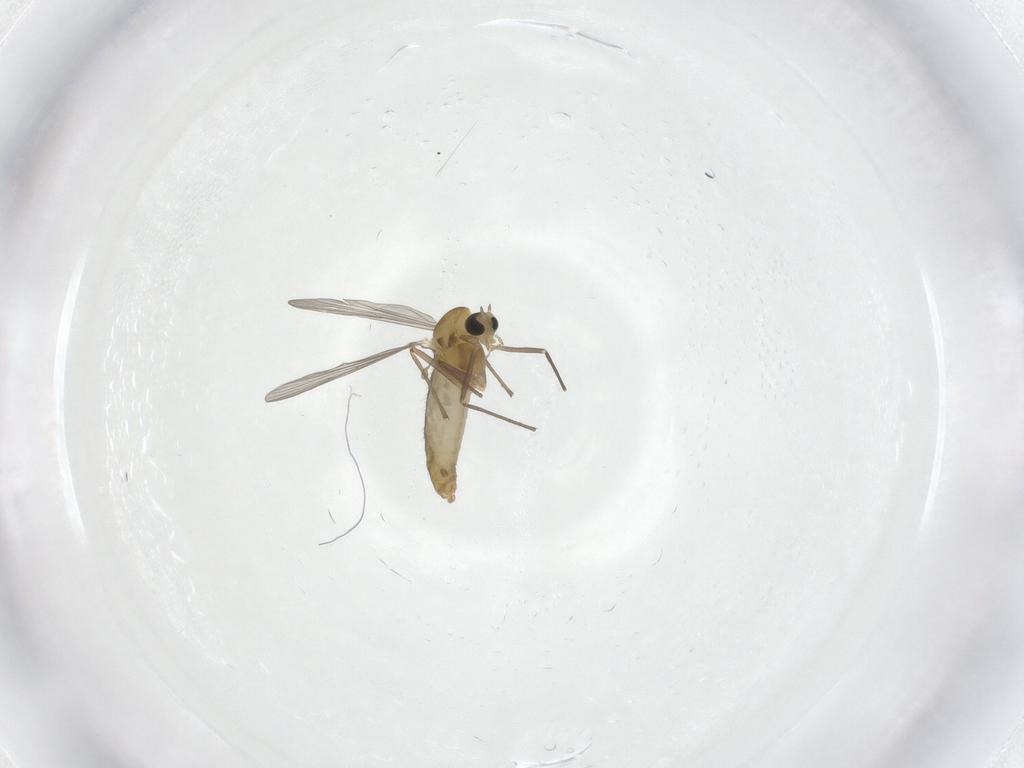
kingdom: Animalia
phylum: Arthropoda
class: Insecta
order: Diptera
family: Chironomidae
